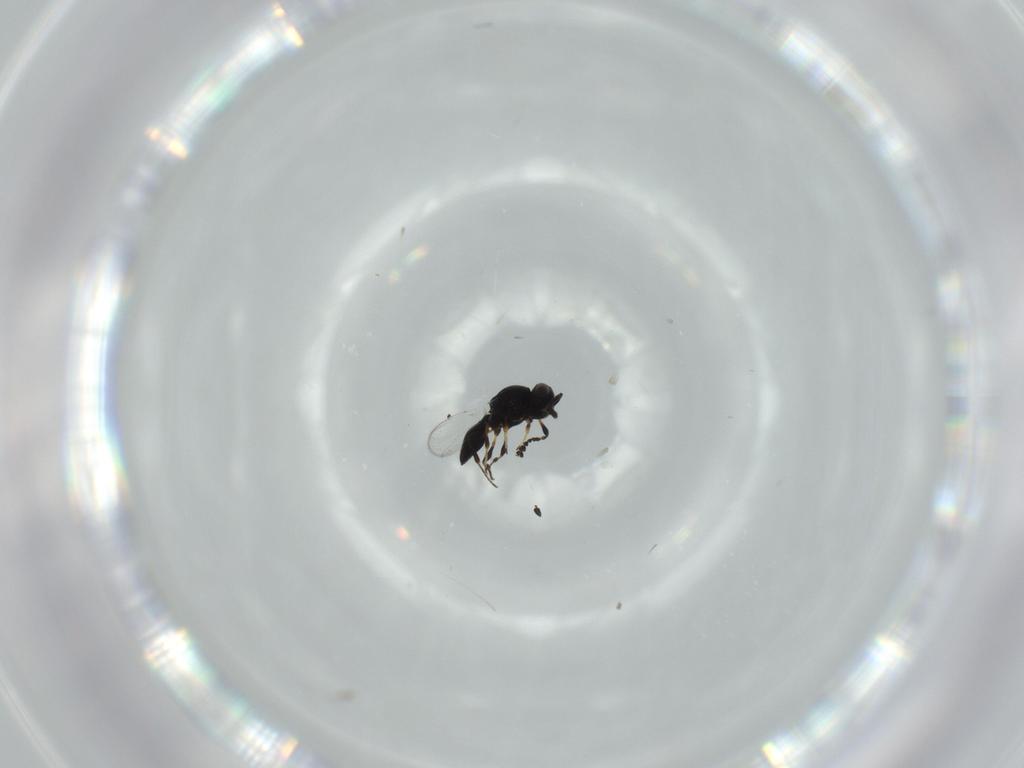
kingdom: Animalia
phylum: Arthropoda
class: Insecta
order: Hymenoptera
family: Platygastridae
